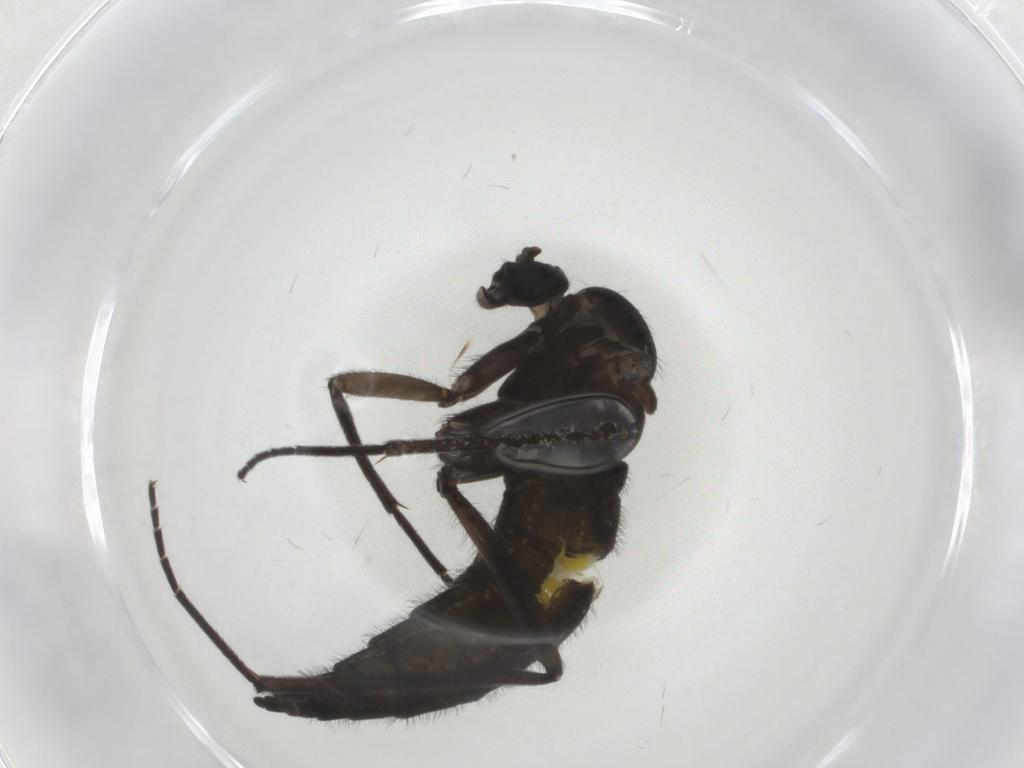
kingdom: Animalia
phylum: Arthropoda
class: Insecta
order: Diptera
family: Sciaridae
